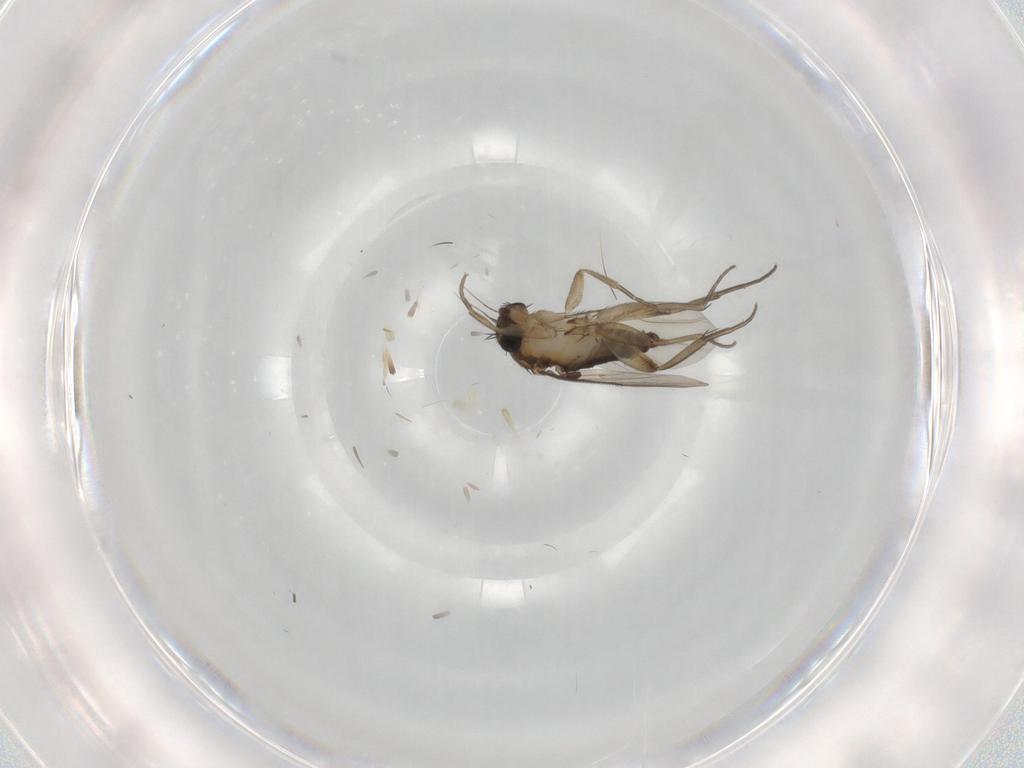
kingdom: Animalia
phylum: Arthropoda
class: Insecta
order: Diptera
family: Phoridae
